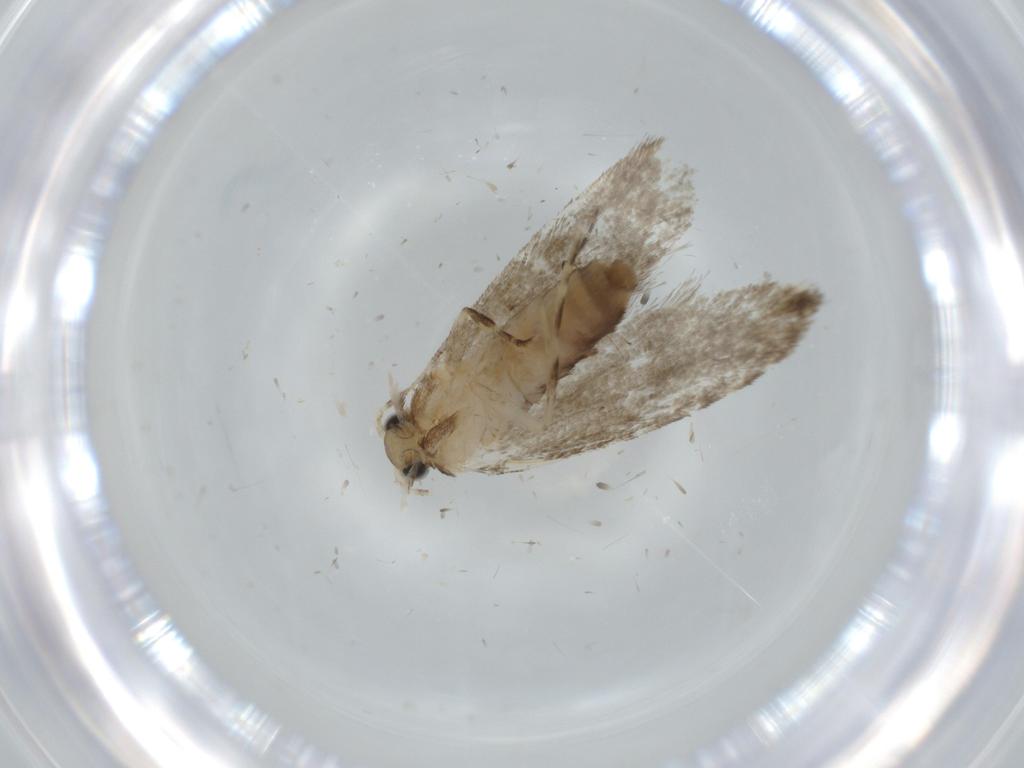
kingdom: Animalia
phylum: Arthropoda
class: Insecta
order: Lepidoptera
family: Tineidae
